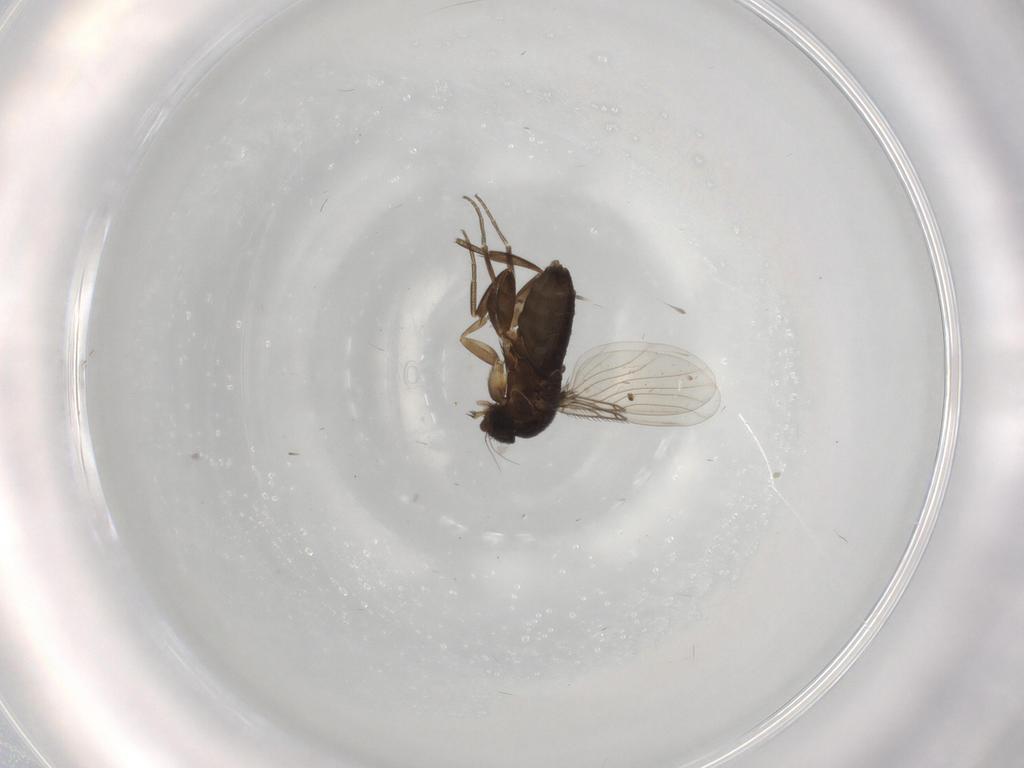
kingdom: Animalia
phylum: Arthropoda
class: Insecta
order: Diptera
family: Phoridae
